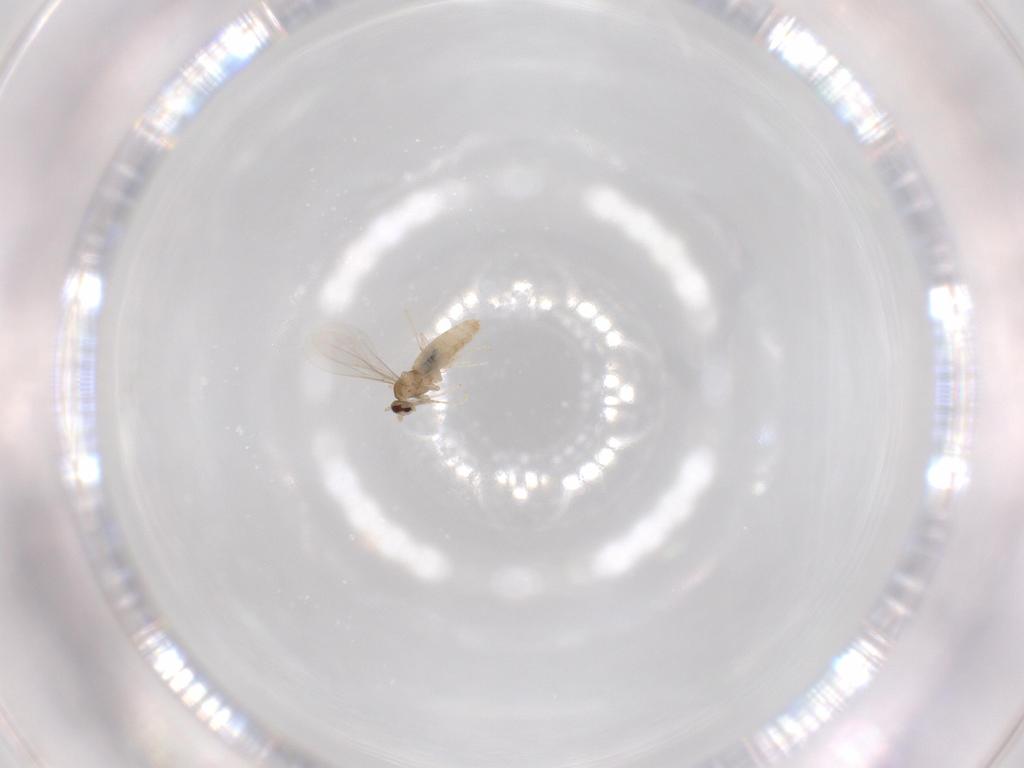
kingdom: Animalia
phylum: Arthropoda
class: Insecta
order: Diptera
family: Cecidomyiidae
